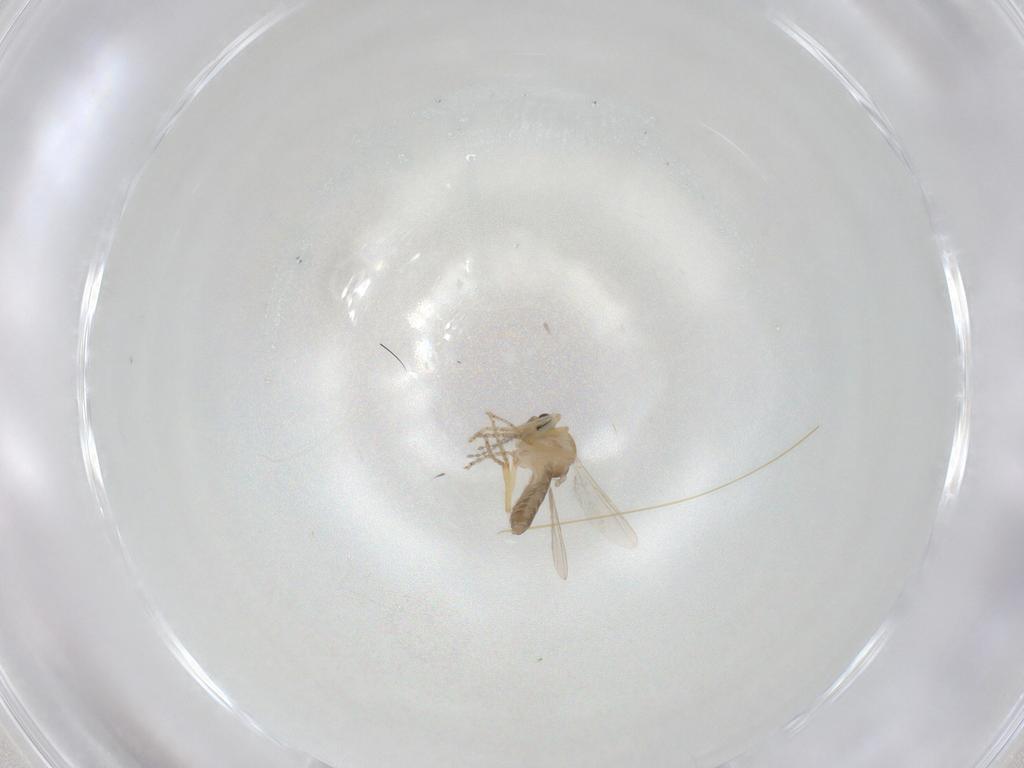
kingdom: Animalia
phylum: Arthropoda
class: Insecta
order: Diptera
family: Ceratopogonidae
